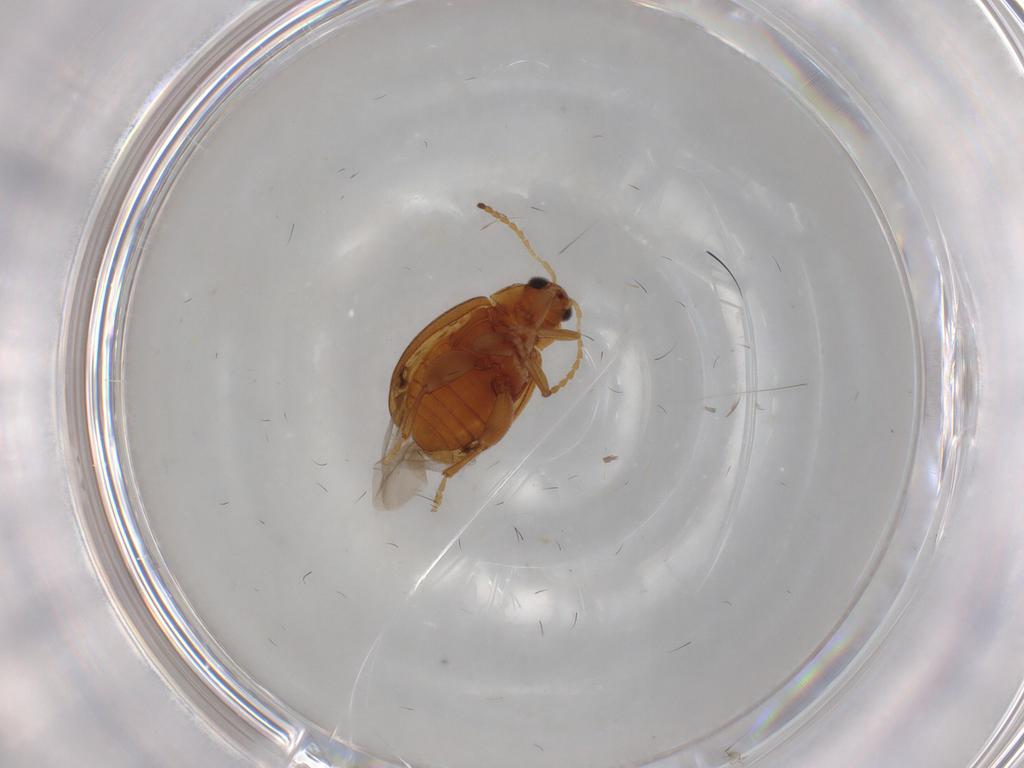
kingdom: Animalia
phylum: Arthropoda
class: Insecta
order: Coleoptera
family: Chrysomelidae
